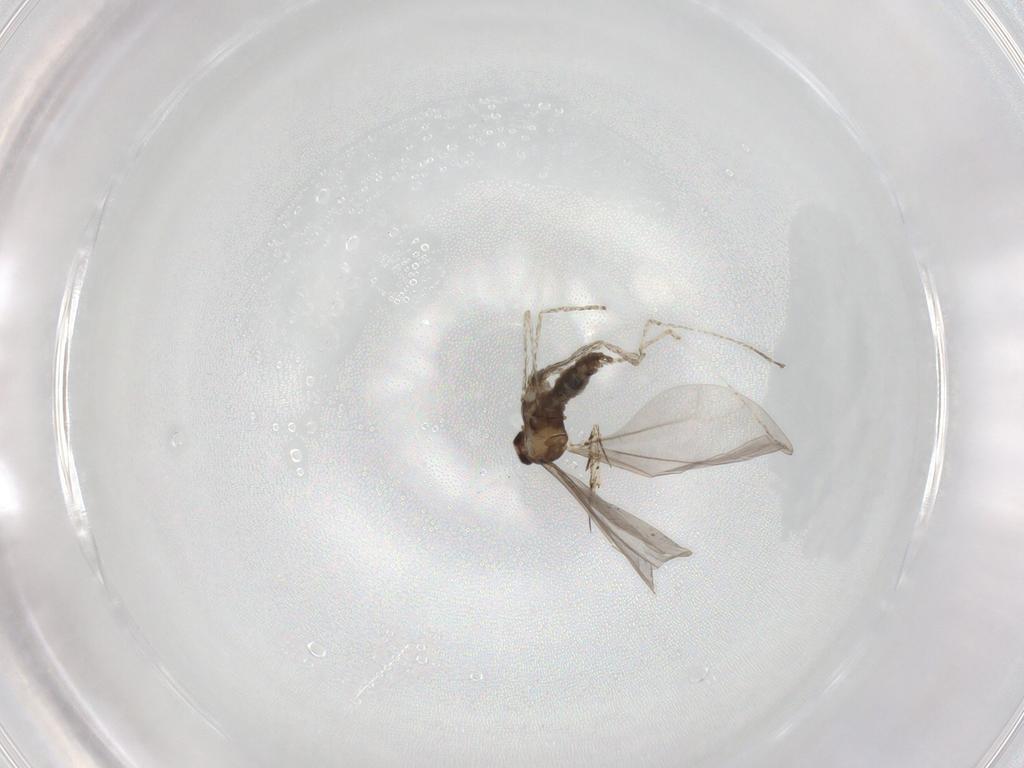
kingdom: Animalia
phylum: Arthropoda
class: Insecta
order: Diptera
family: Cecidomyiidae
